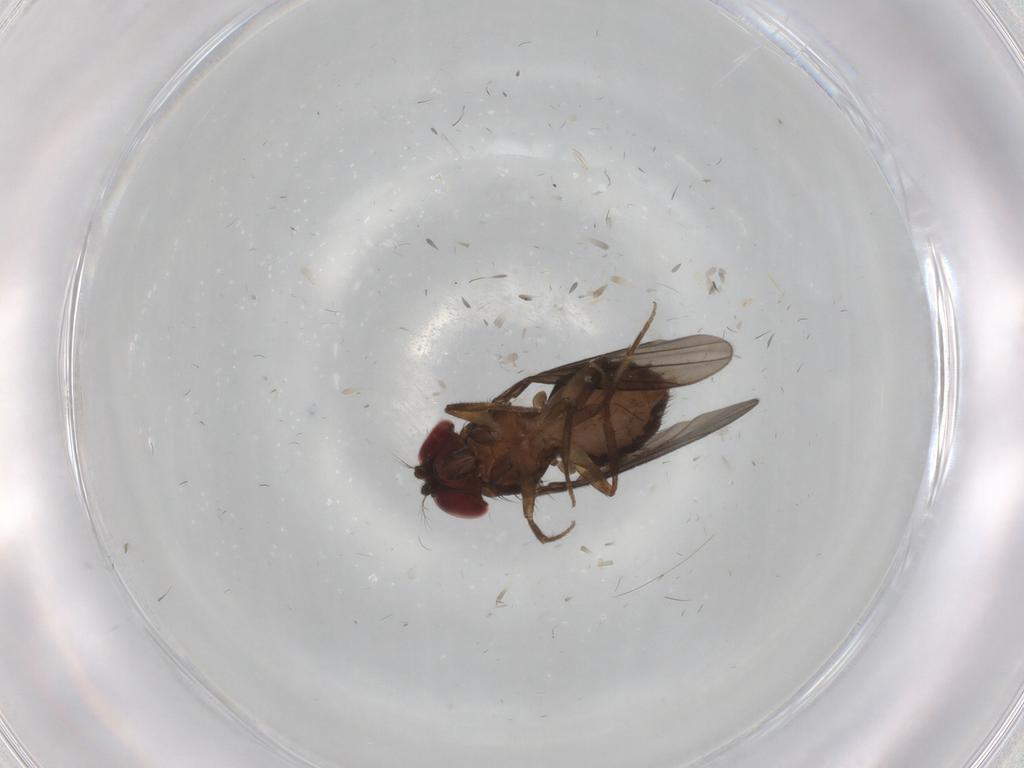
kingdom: Animalia
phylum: Arthropoda
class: Insecta
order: Diptera
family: Drosophilidae
